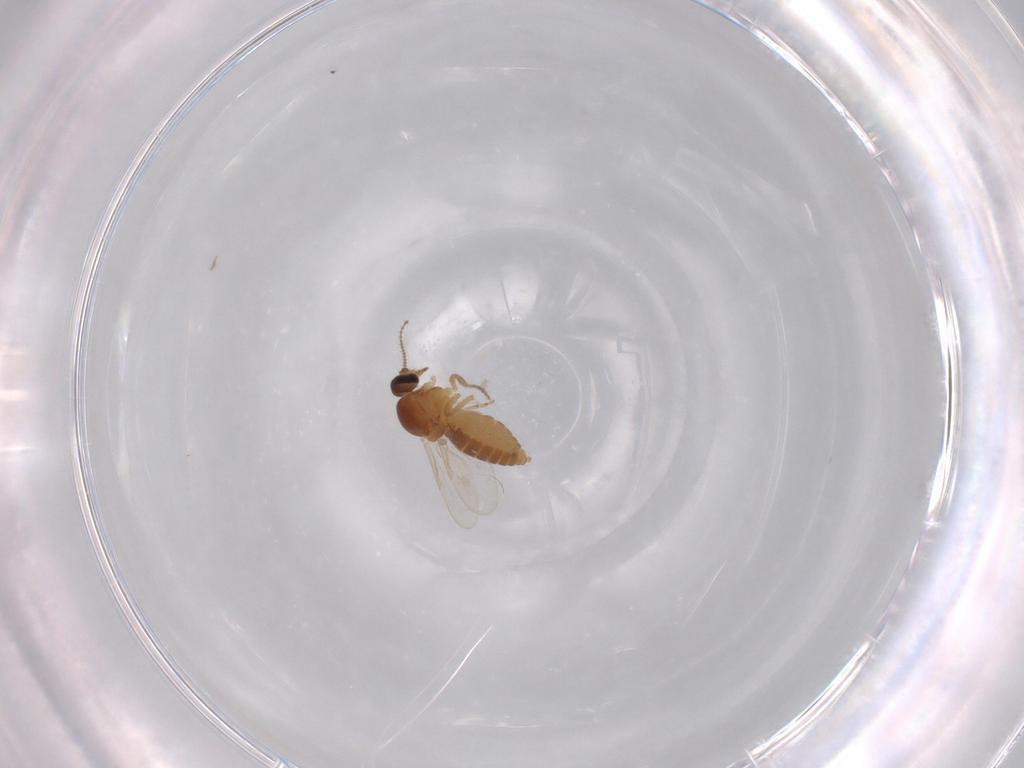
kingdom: Animalia
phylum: Arthropoda
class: Insecta
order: Diptera
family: Ceratopogonidae
